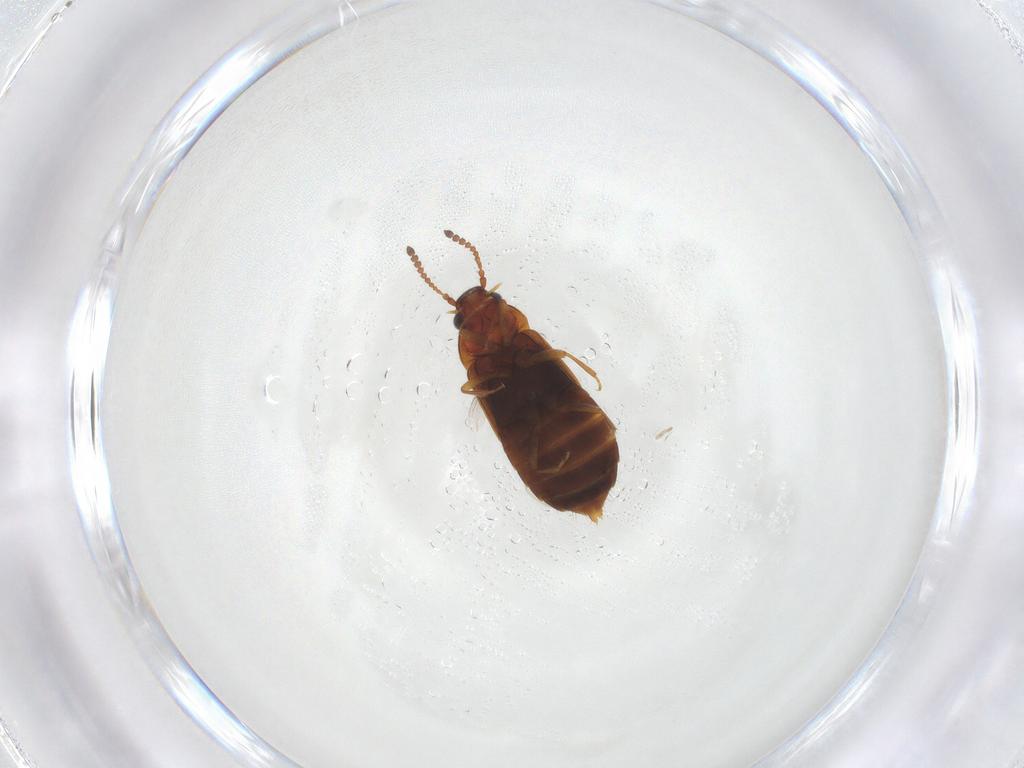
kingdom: Animalia
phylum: Arthropoda
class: Insecta
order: Coleoptera
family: Staphylinidae
